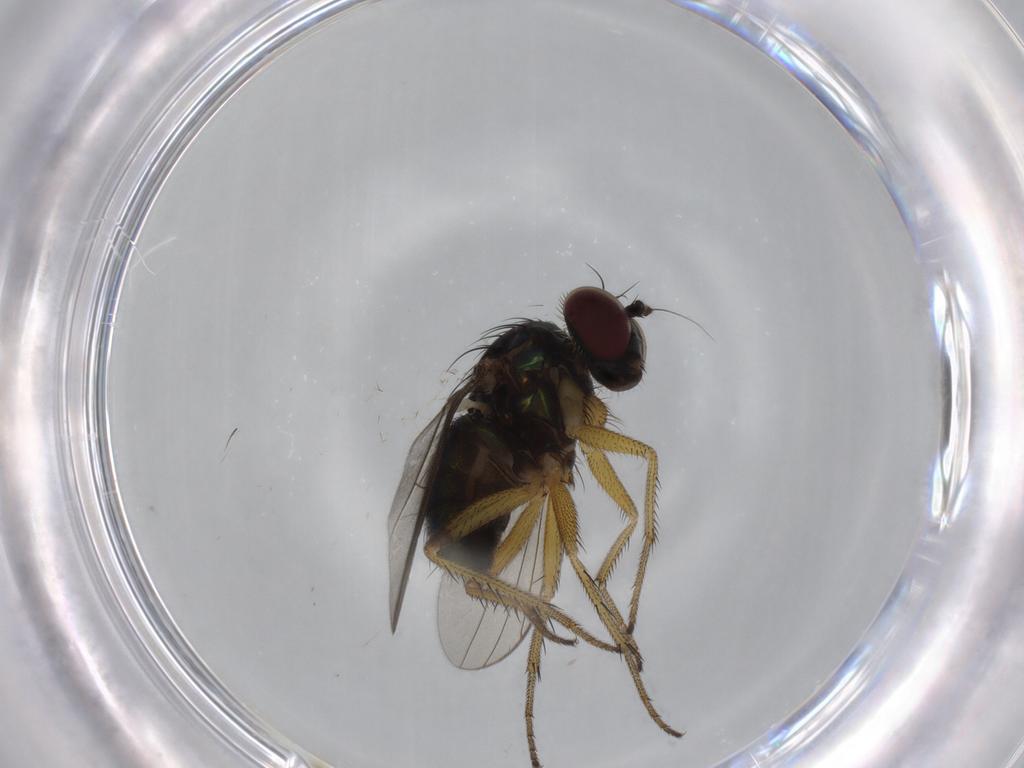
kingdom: Animalia
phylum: Arthropoda
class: Insecta
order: Diptera
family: Dolichopodidae
